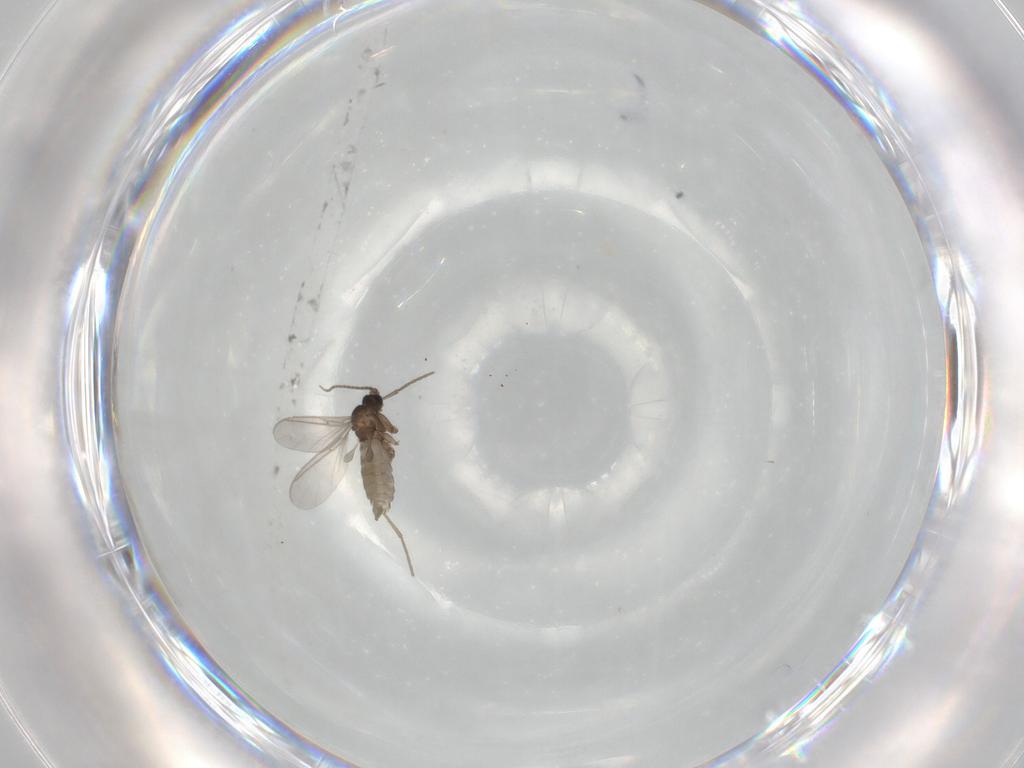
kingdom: Animalia
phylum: Arthropoda
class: Insecta
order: Diptera
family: Sciaridae
